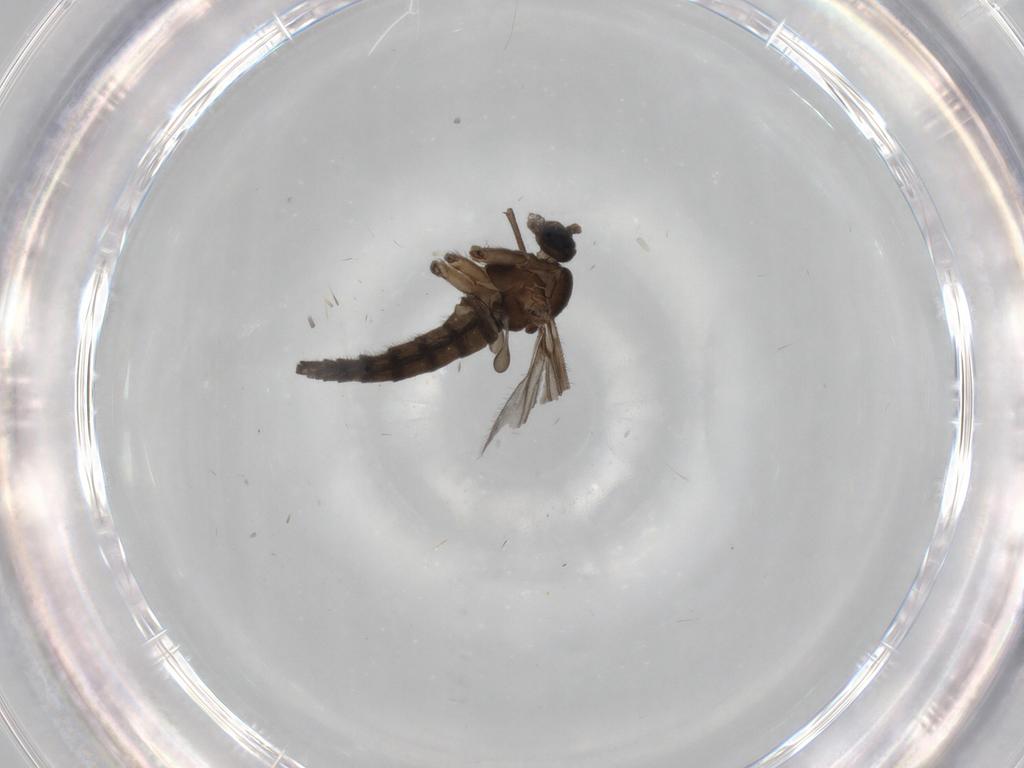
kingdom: Animalia
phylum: Arthropoda
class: Insecta
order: Diptera
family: Sciaridae
